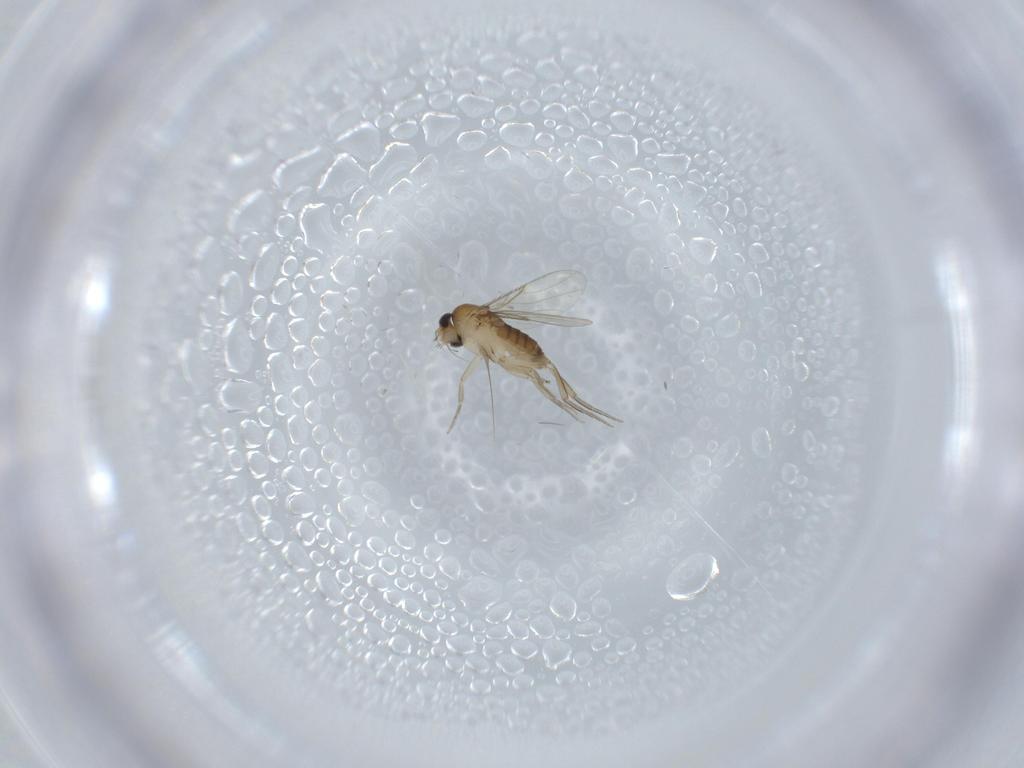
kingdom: Animalia
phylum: Arthropoda
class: Insecta
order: Diptera
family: Phoridae
